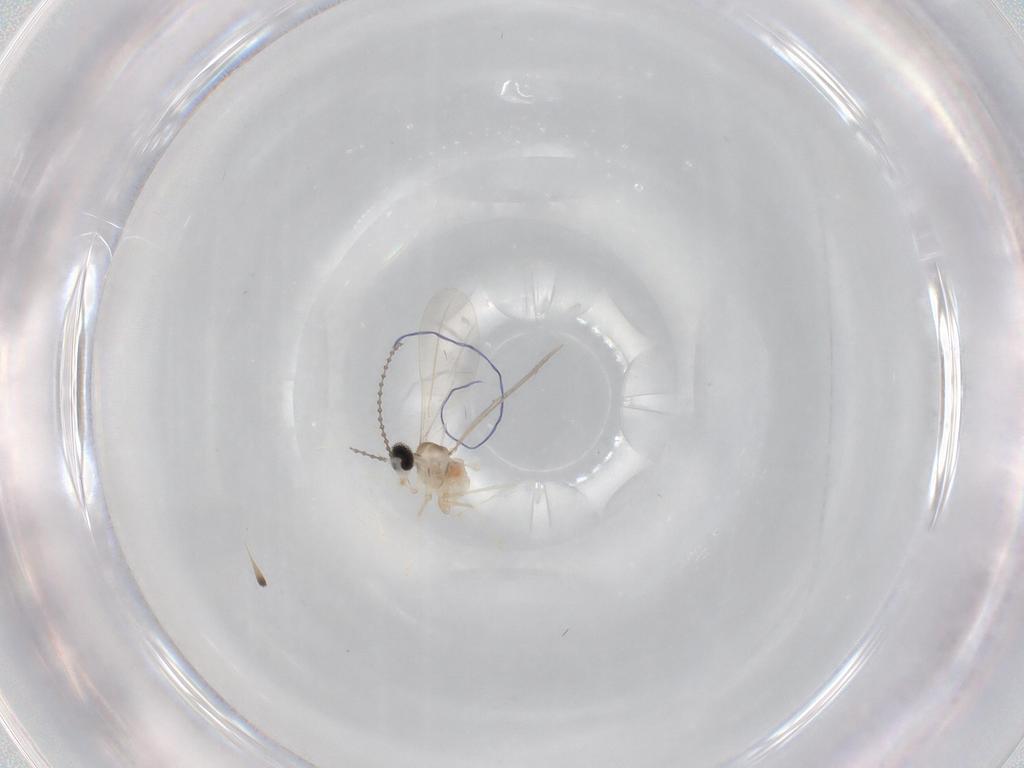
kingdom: Animalia
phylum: Arthropoda
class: Insecta
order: Diptera
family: Cecidomyiidae
